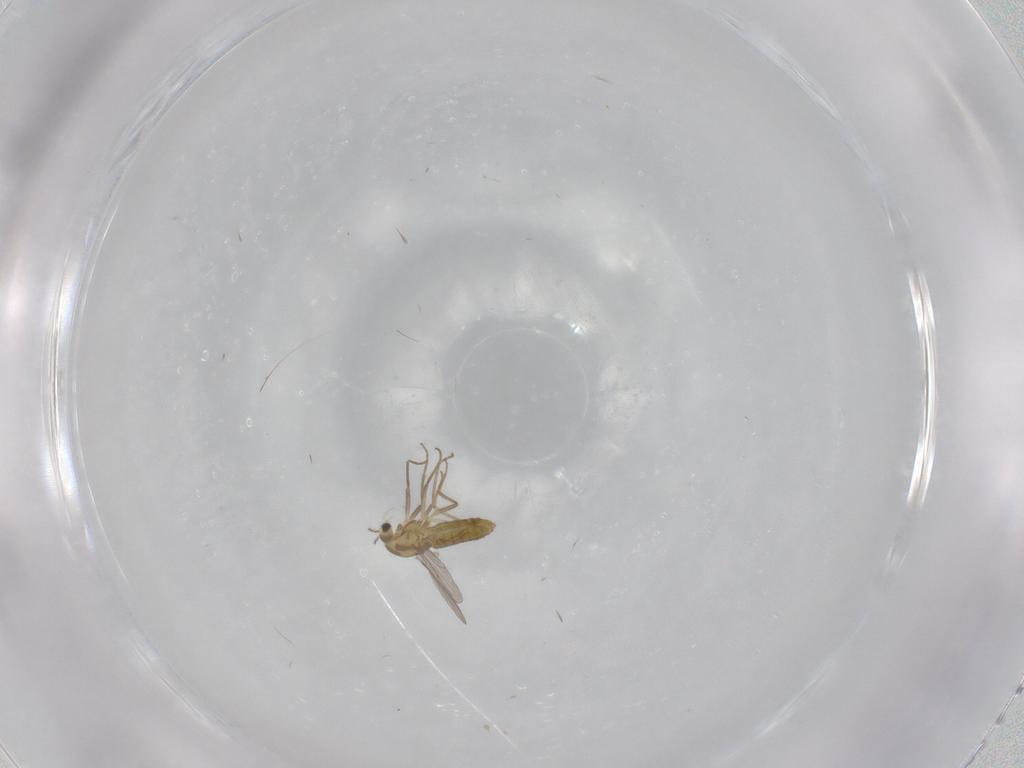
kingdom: Animalia
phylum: Arthropoda
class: Insecta
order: Diptera
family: Chironomidae
